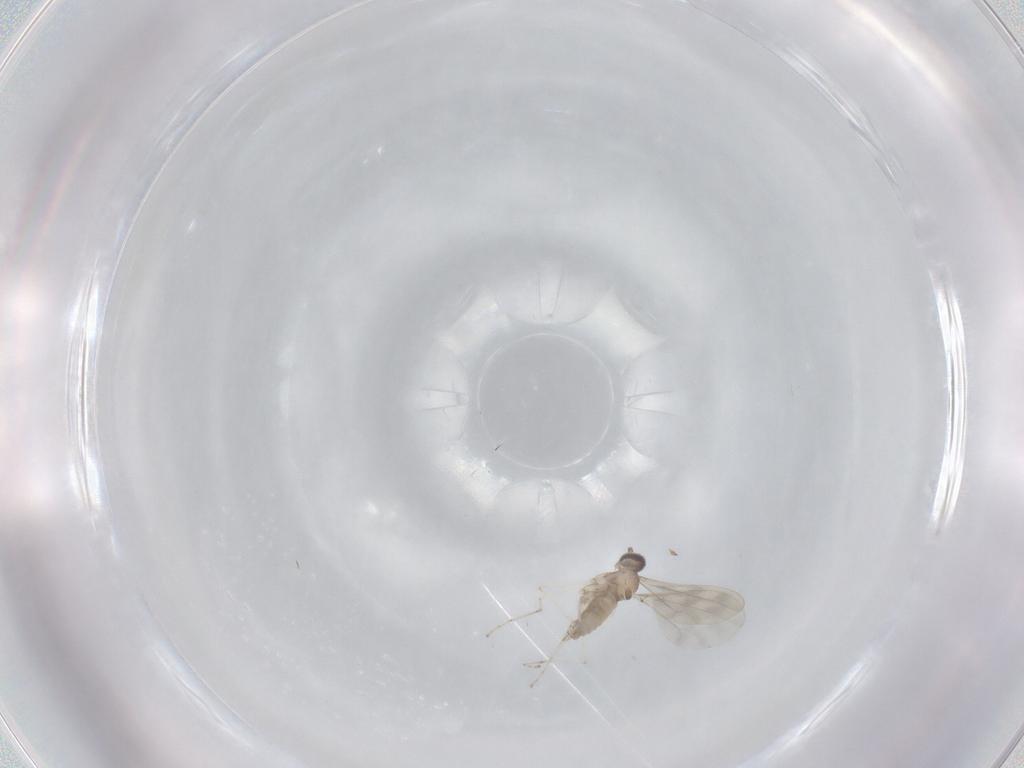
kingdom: Animalia
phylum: Arthropoda
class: Insecta
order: Diptera
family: Cecidomyiidae
